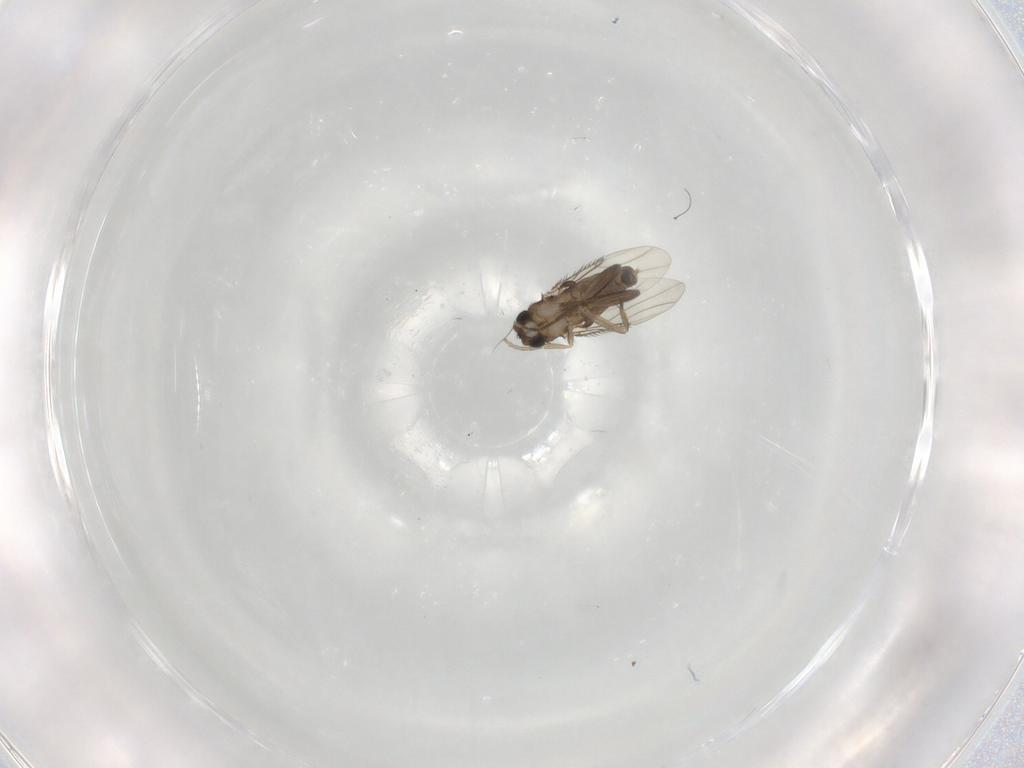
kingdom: Animalia
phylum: Arthropoda
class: Insecta
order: Diptera
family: Phoridae
